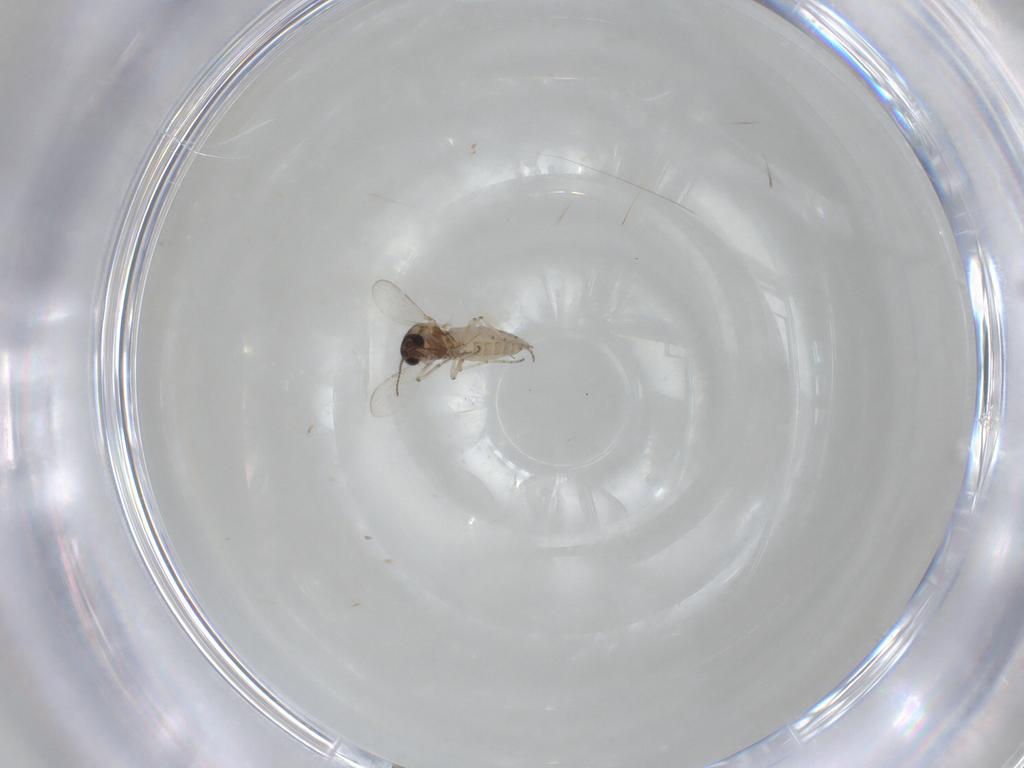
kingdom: Animalia
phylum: Arthropoda
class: Insecta
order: Diptera
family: Ceratopogonidae
